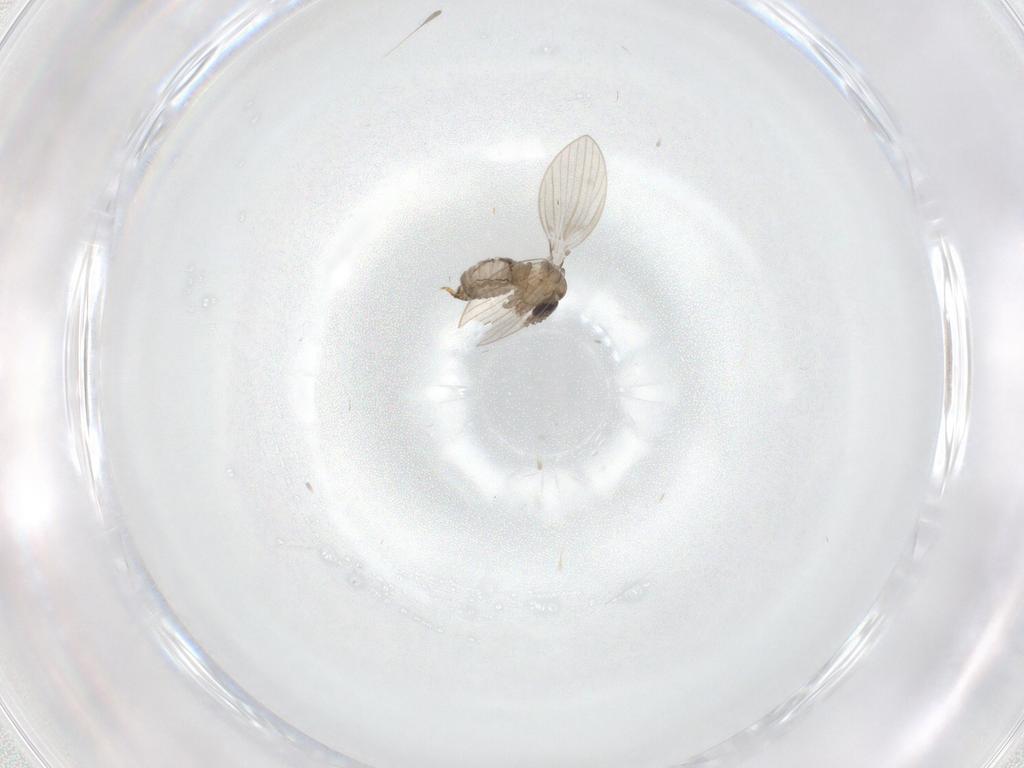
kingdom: Animalia
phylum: Arthropoda
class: Insecta
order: Diptera
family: Psychodidae
